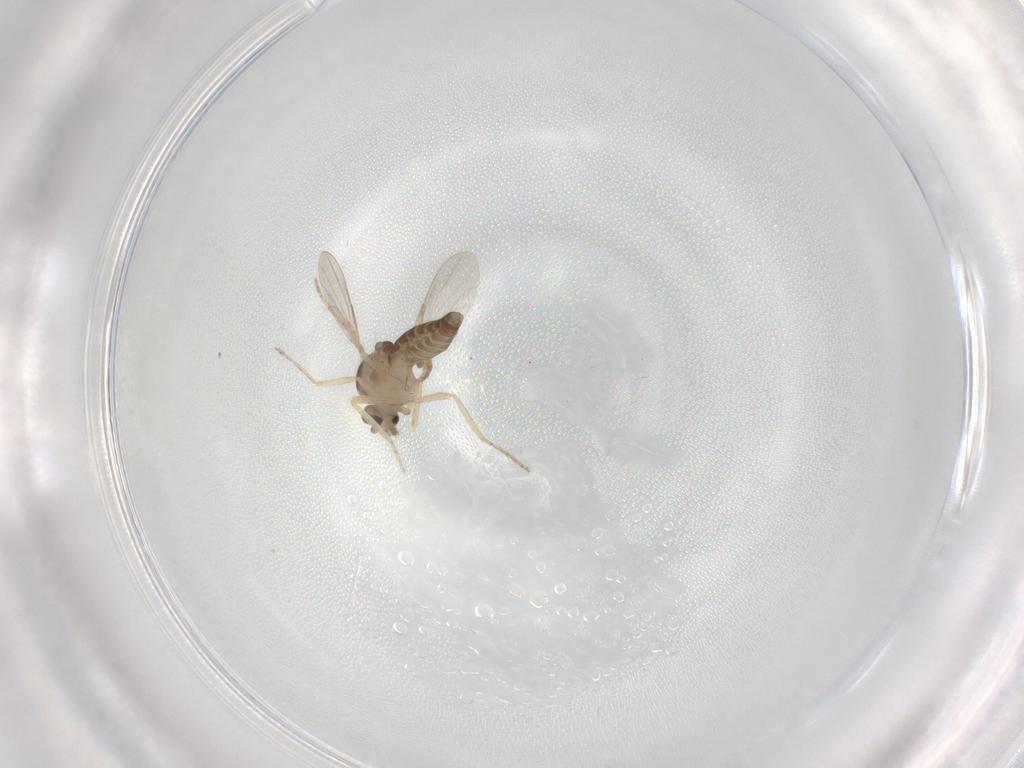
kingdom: Animalia
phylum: Arthropoda
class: Insecta
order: Diptera
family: Ceratopogonidae
